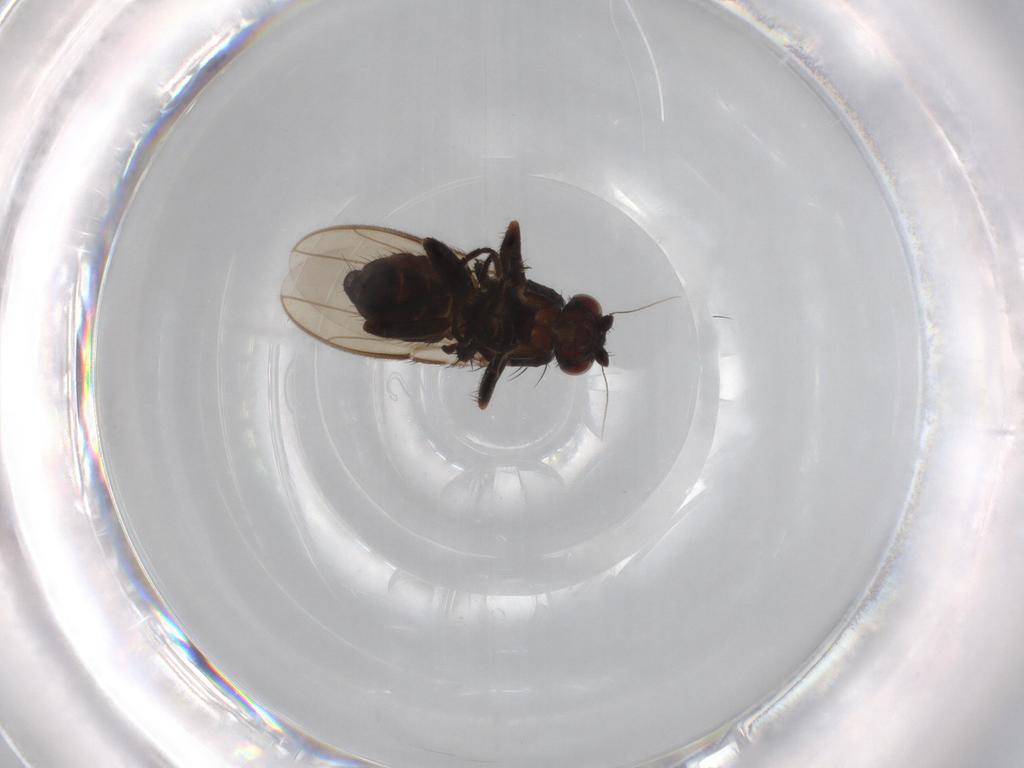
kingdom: Animalia
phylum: Arthropoda
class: Insecta
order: Diptera
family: Sphaeroceridae
